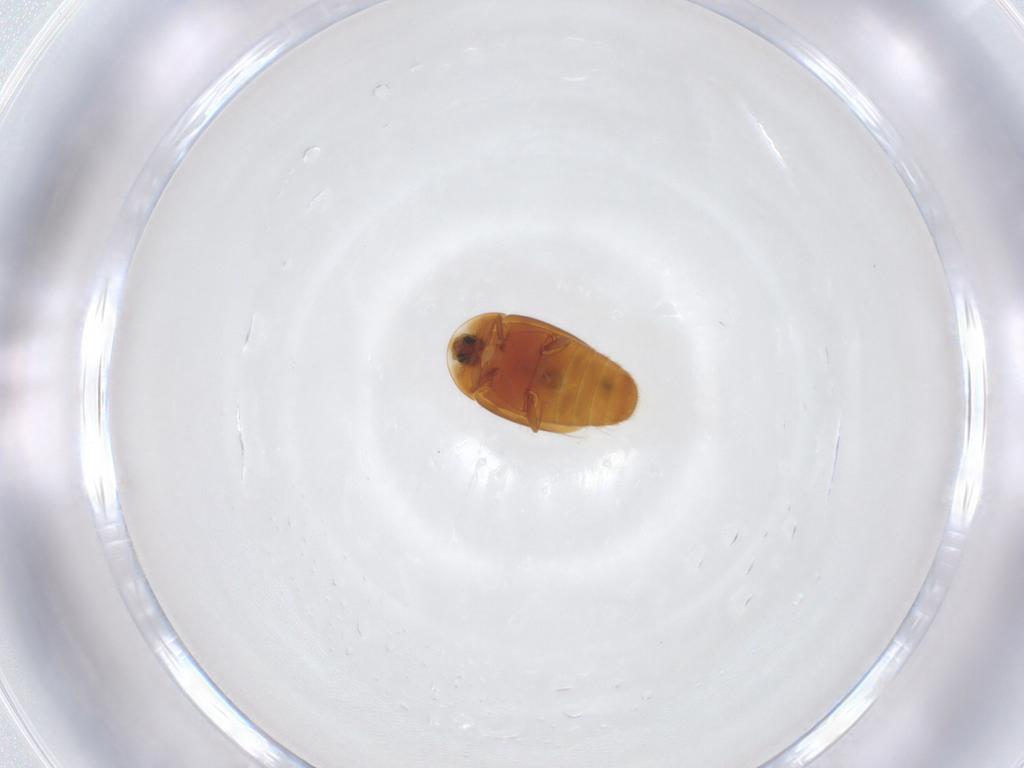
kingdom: Animalia
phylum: Arthropoda
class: Insecta
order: Coleoptera
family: Corylophidae
